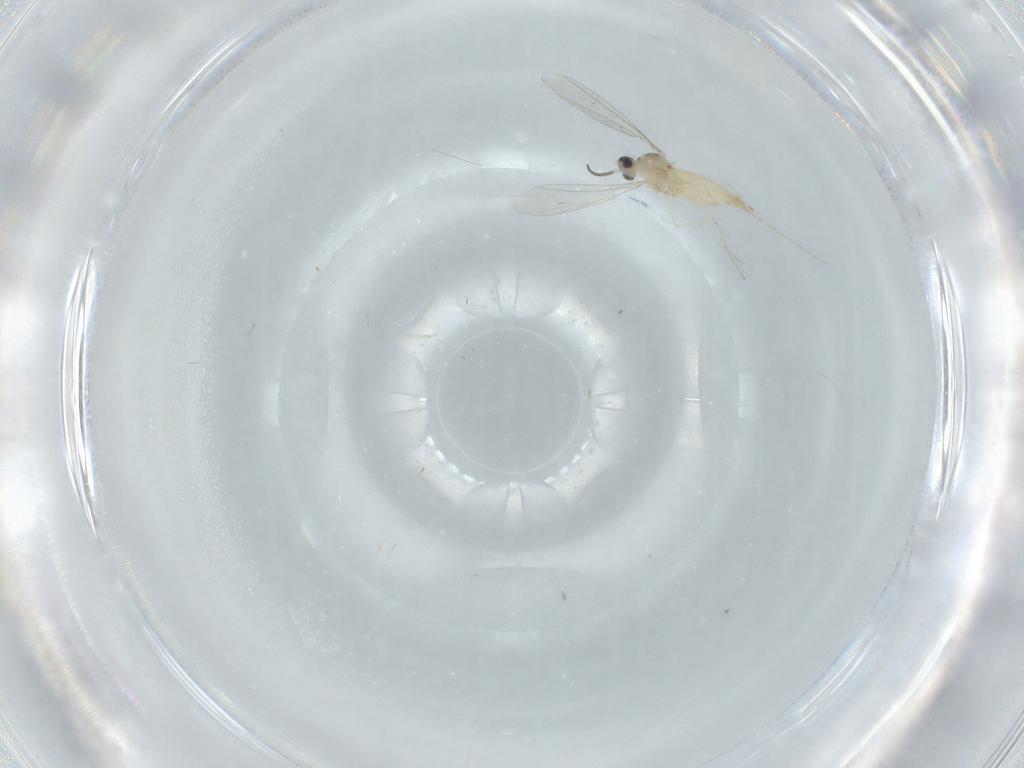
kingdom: Animalia
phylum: Arthropoda
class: Insecta
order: Diptera
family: Cecidomyiidae
